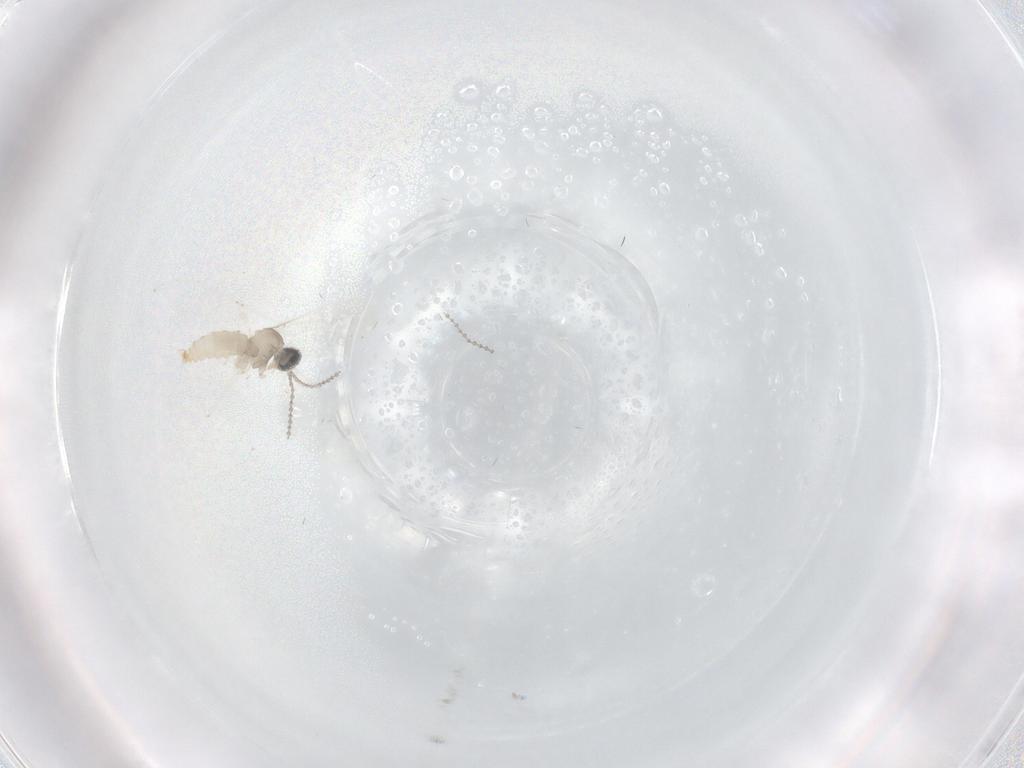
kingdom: Animalia
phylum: Arthropoda
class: Insecta
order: Diptera
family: Cecidomyiidae
